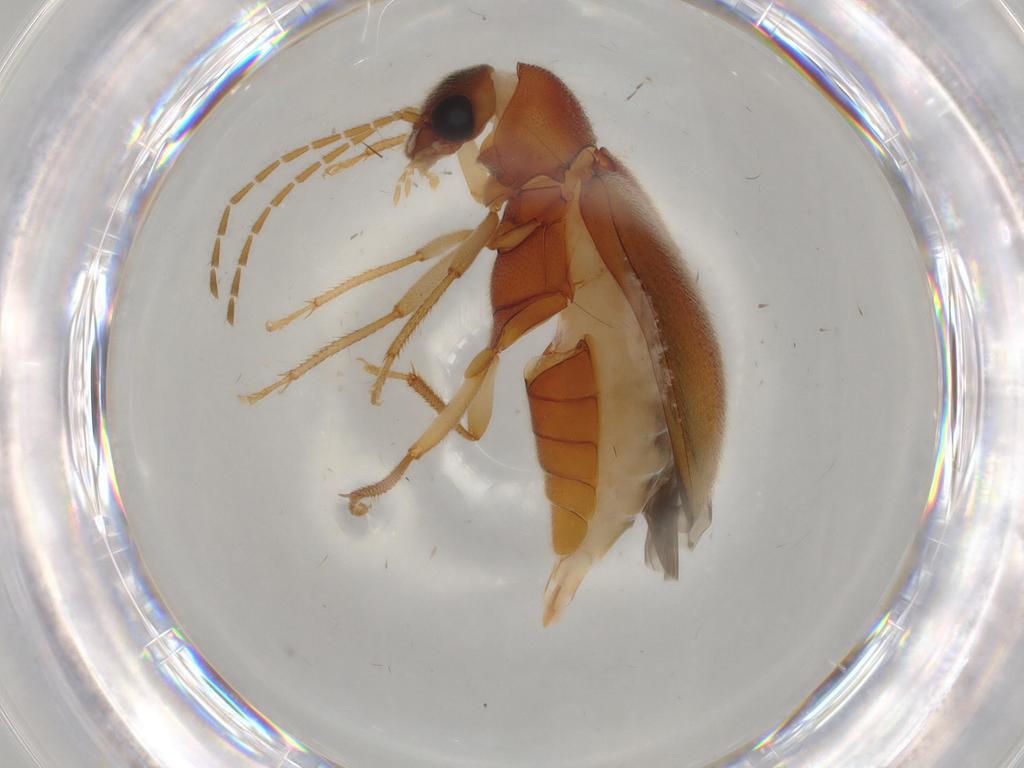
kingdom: Animalia
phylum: Arthropoda
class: Insecta
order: Coleoptera
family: Ptilodactylidae
